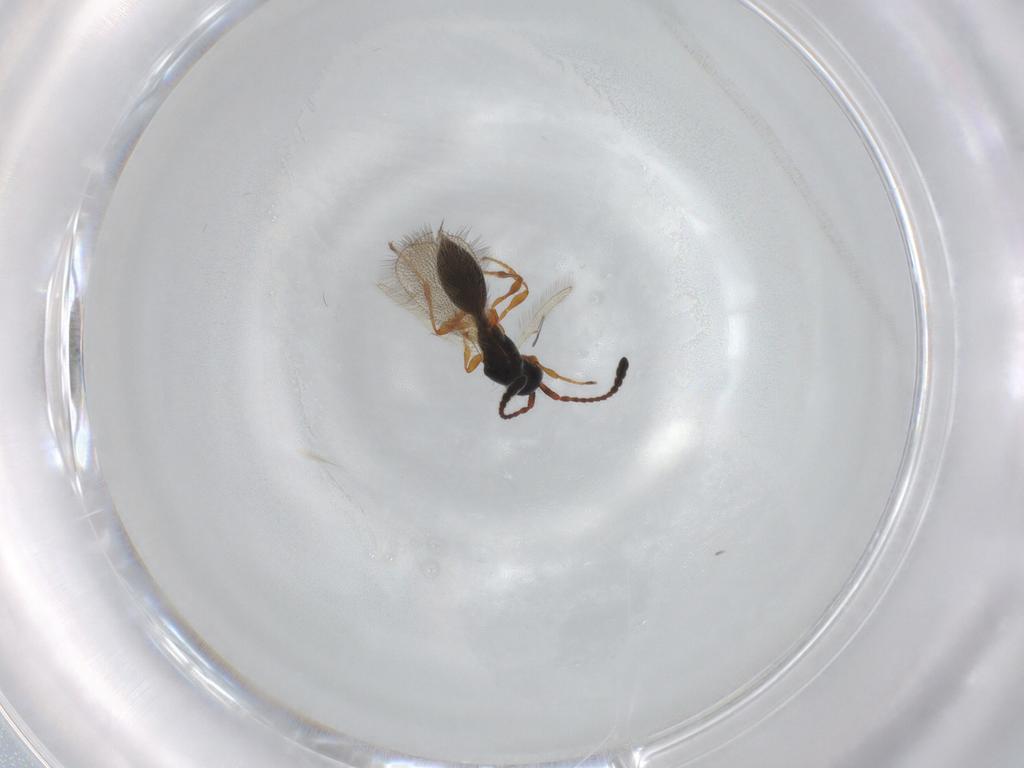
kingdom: Animalia
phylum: Arthropoda
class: Insecta
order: Hymenoptera
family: Diapriidae
